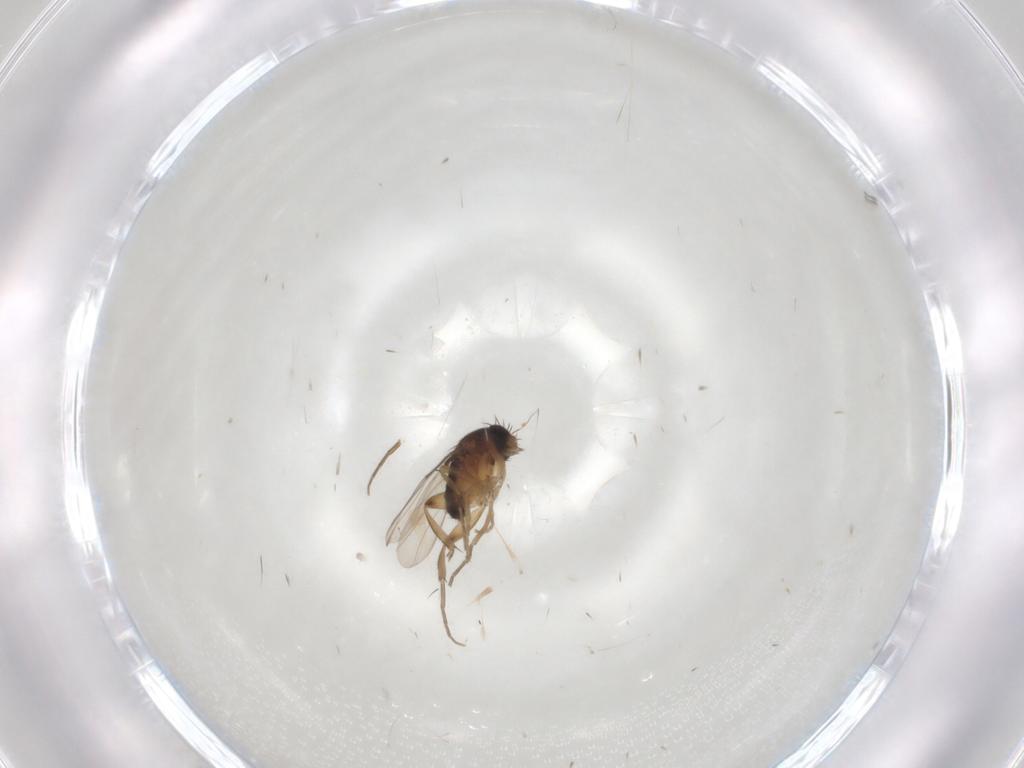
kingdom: Animalia
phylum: Arthropoda
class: Insecta
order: Diptera
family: Syrphidae
